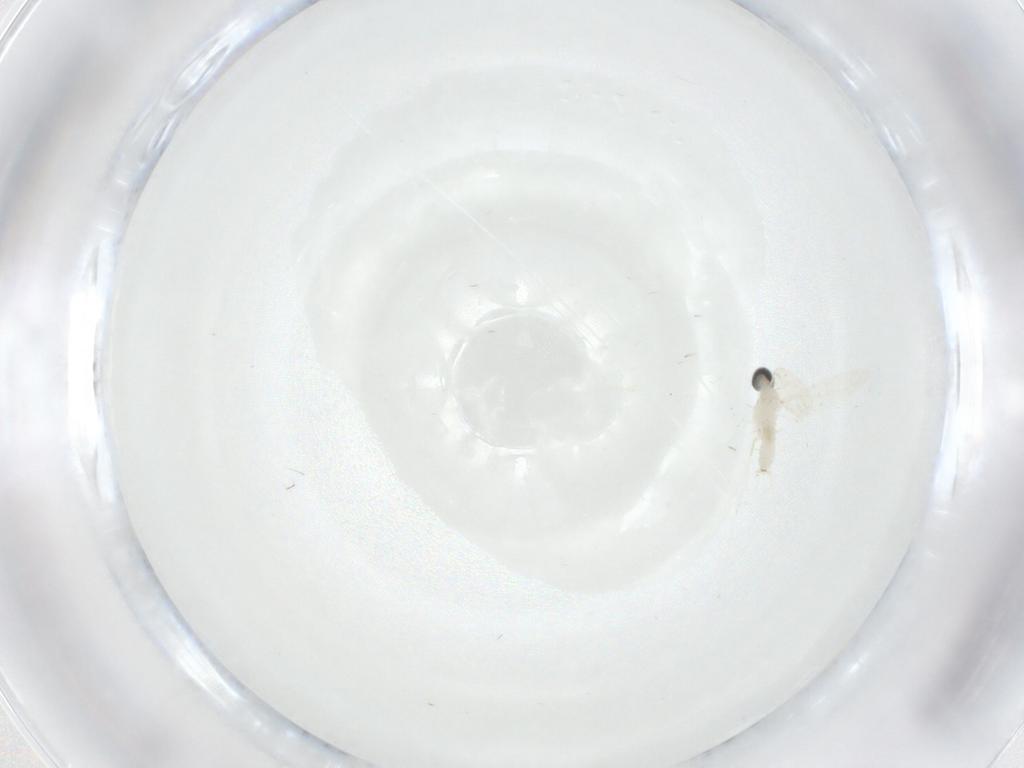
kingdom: Animalia
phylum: Arthropoda
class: Insecta
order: Diptera
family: Cecidomyiidae
